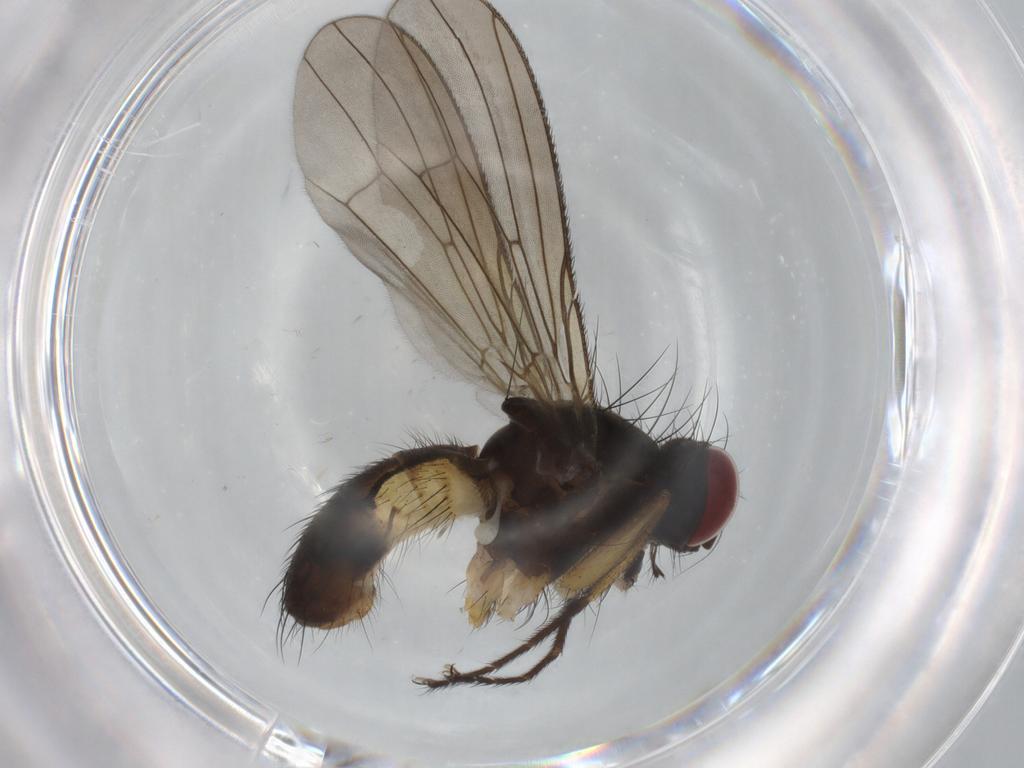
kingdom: Animalia
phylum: Arthropoda
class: Insecta
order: Diptera
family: Muscidae
